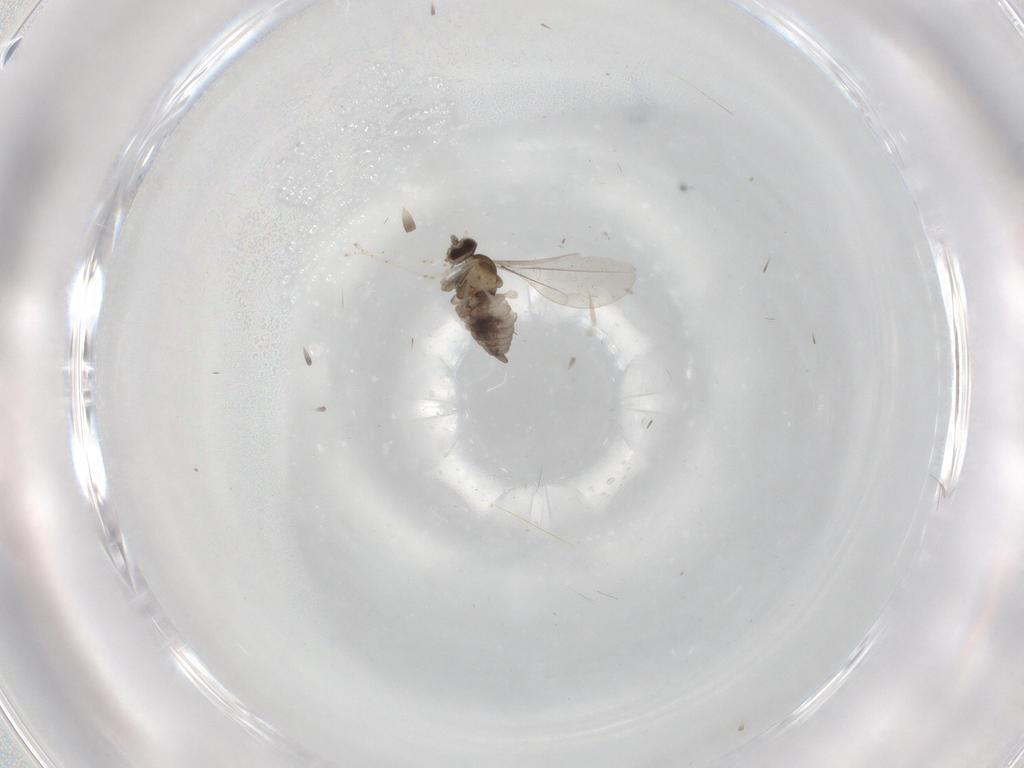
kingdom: Animalia
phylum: Arthropoda
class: Insecta
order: Diptera
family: Cecidomyiidae
